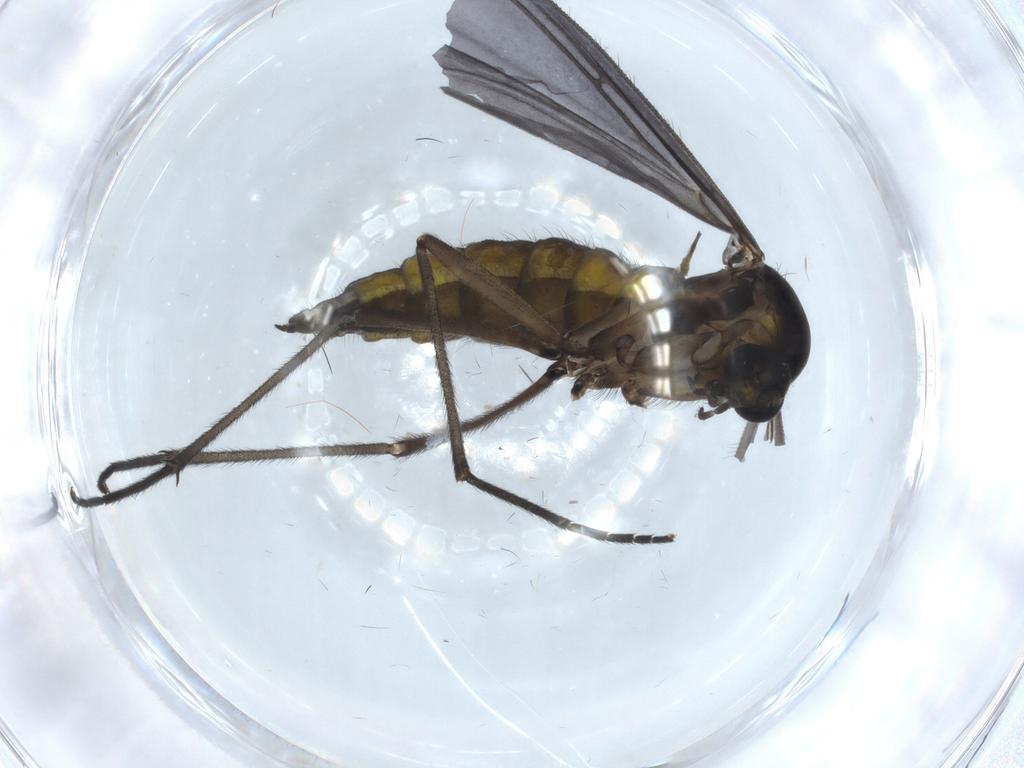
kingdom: Animalia
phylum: Arthropoda
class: Insecta
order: Diptera
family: Sciaridae
